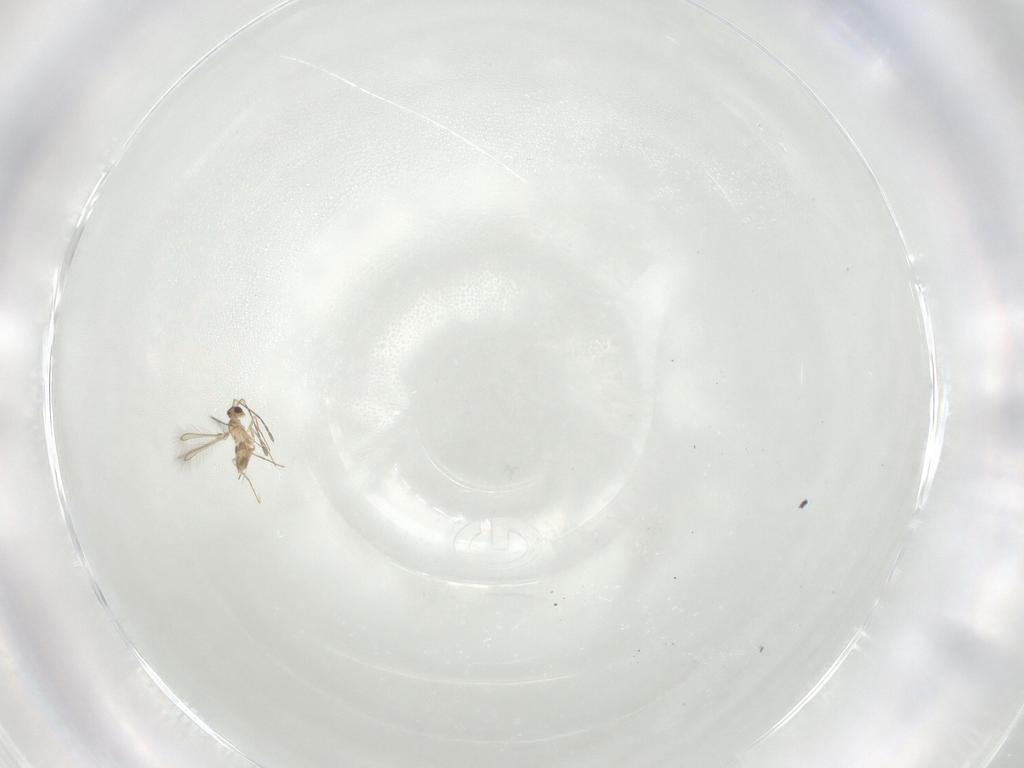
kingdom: Animalia
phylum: Arthropoda
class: Insecta
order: Hymenoptera
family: Mymaridae
